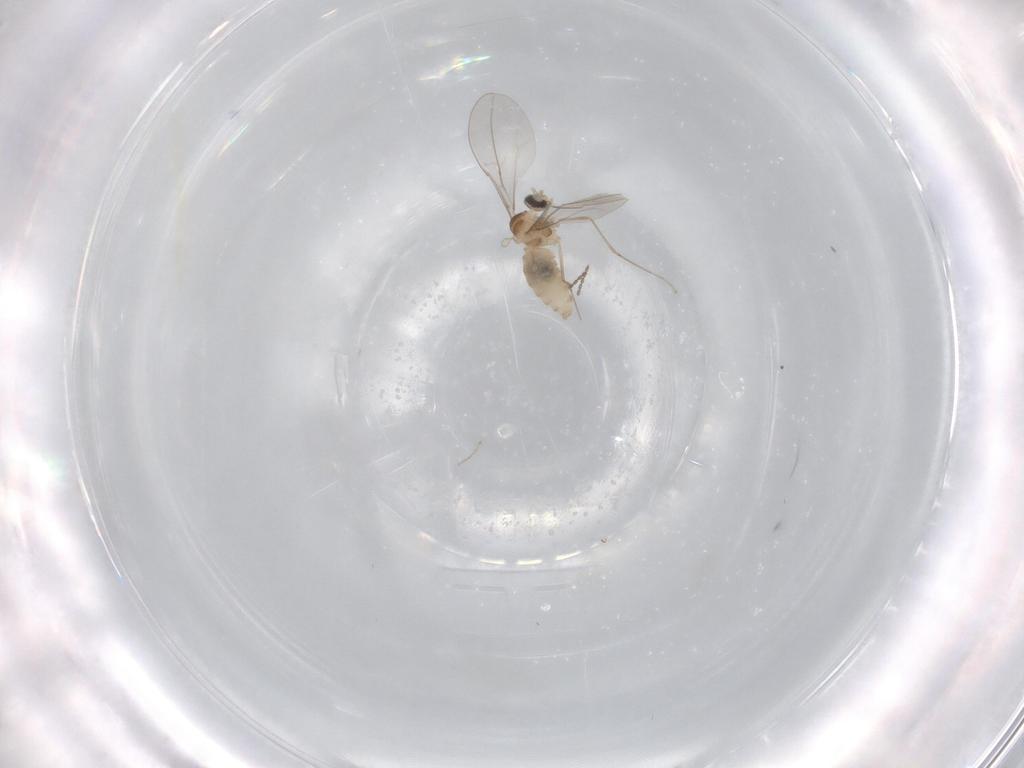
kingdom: Animalia
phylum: Arthropoda
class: Insecta
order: Diptera
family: Cecidomyiidae
